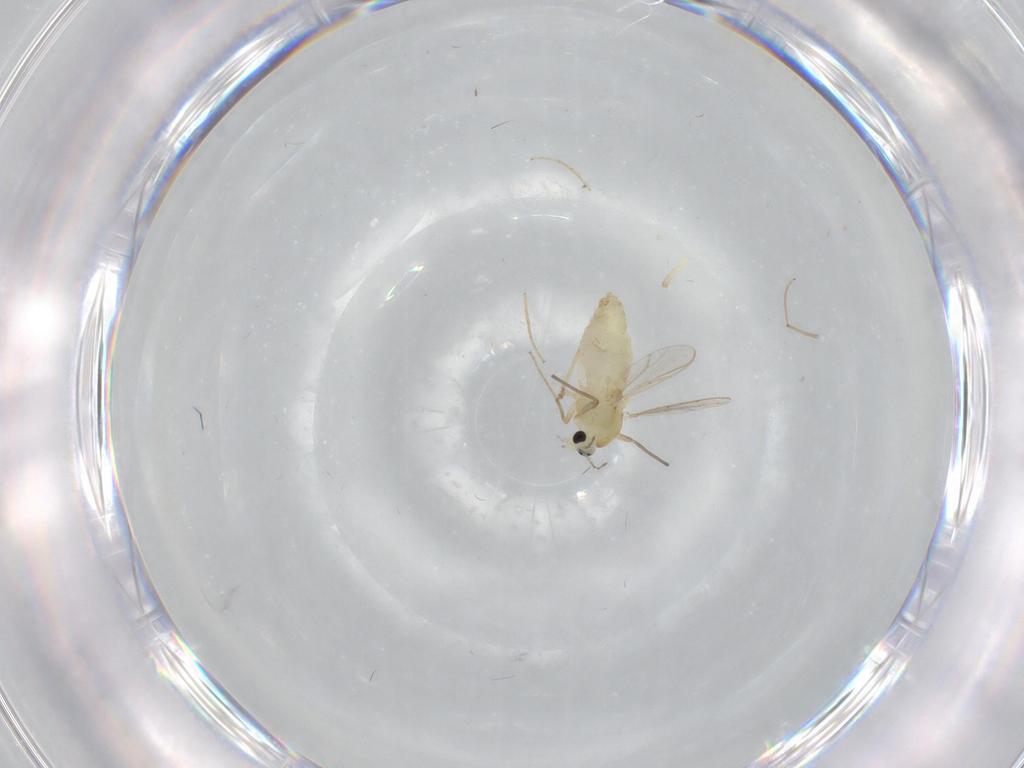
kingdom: Animalia
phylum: Arthropoda
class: Insecta
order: Diptera
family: Chironomidae
